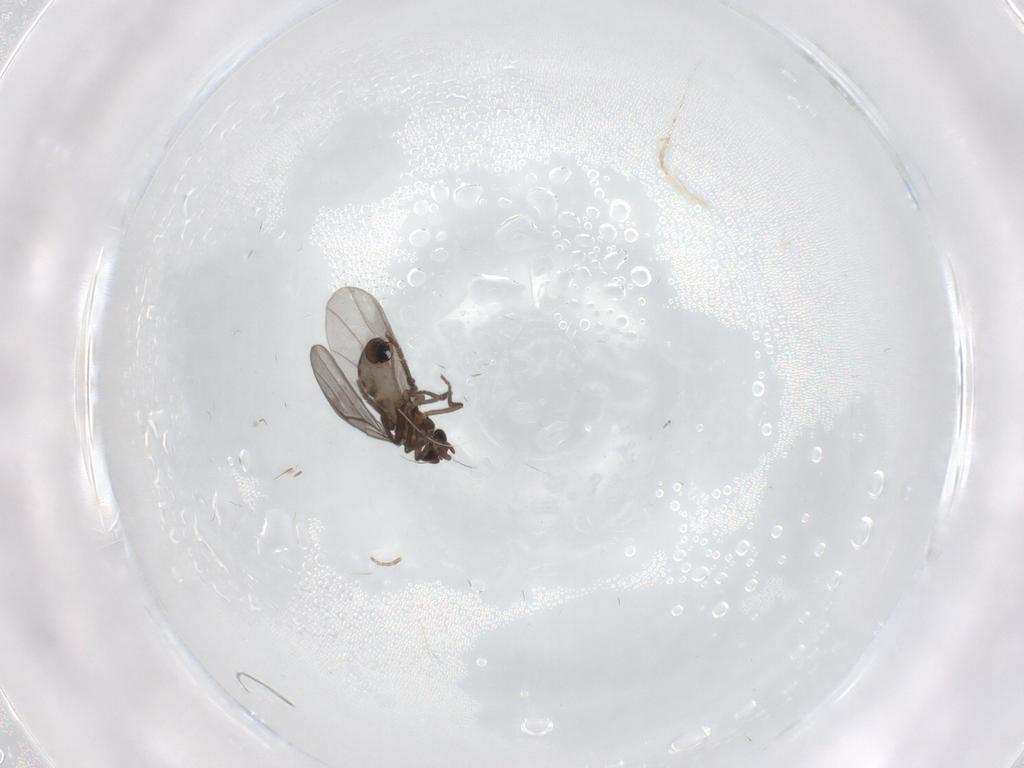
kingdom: Animalia
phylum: Arthropoda
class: Insecta
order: Diptera
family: Phoridae
